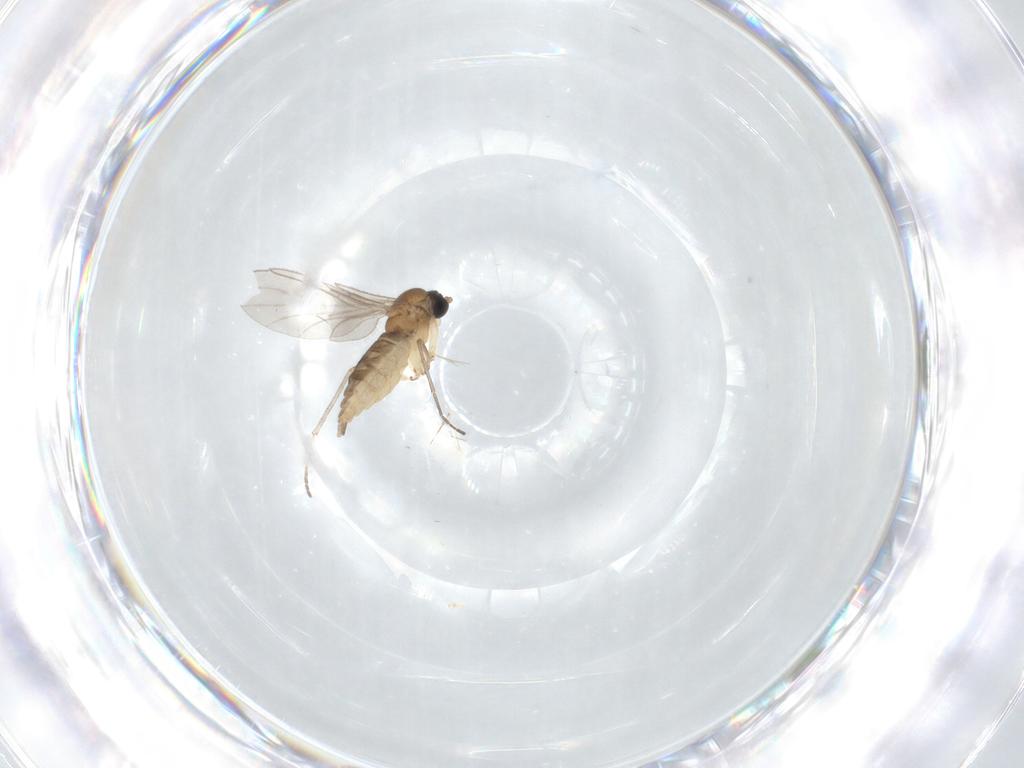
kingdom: Animalia
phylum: Arthropoda
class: Insecta
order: Diptera
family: Sciaridae
